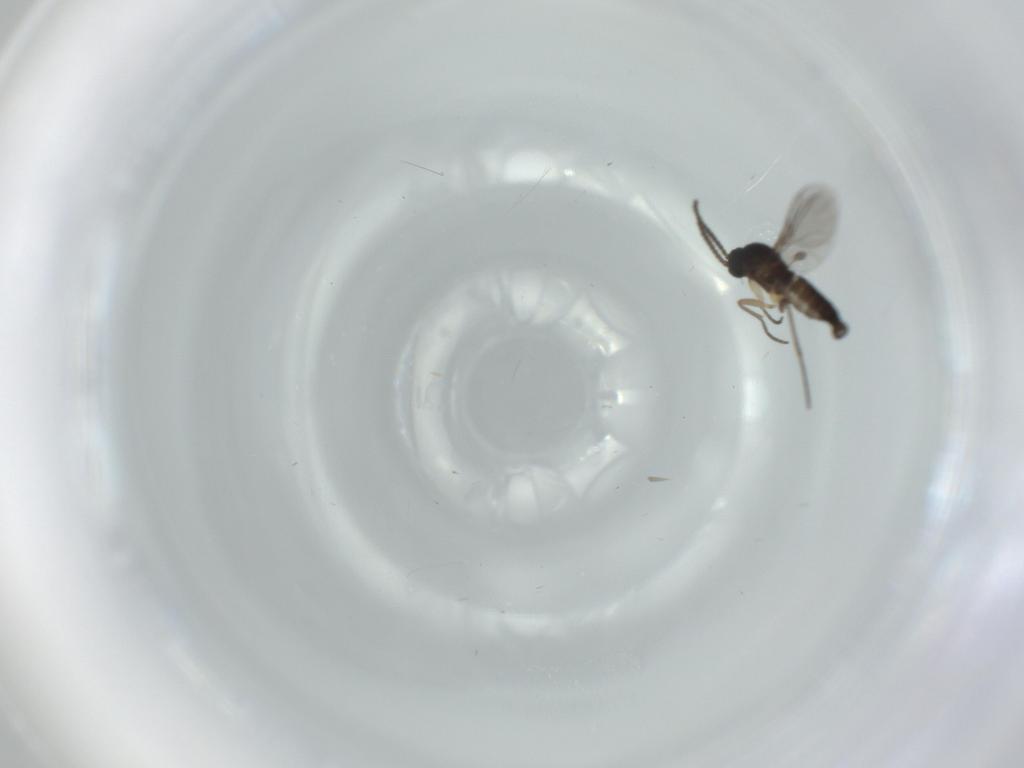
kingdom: Animalia
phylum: Arthropoda
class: Insecta
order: Diptera
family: Sciaridae
